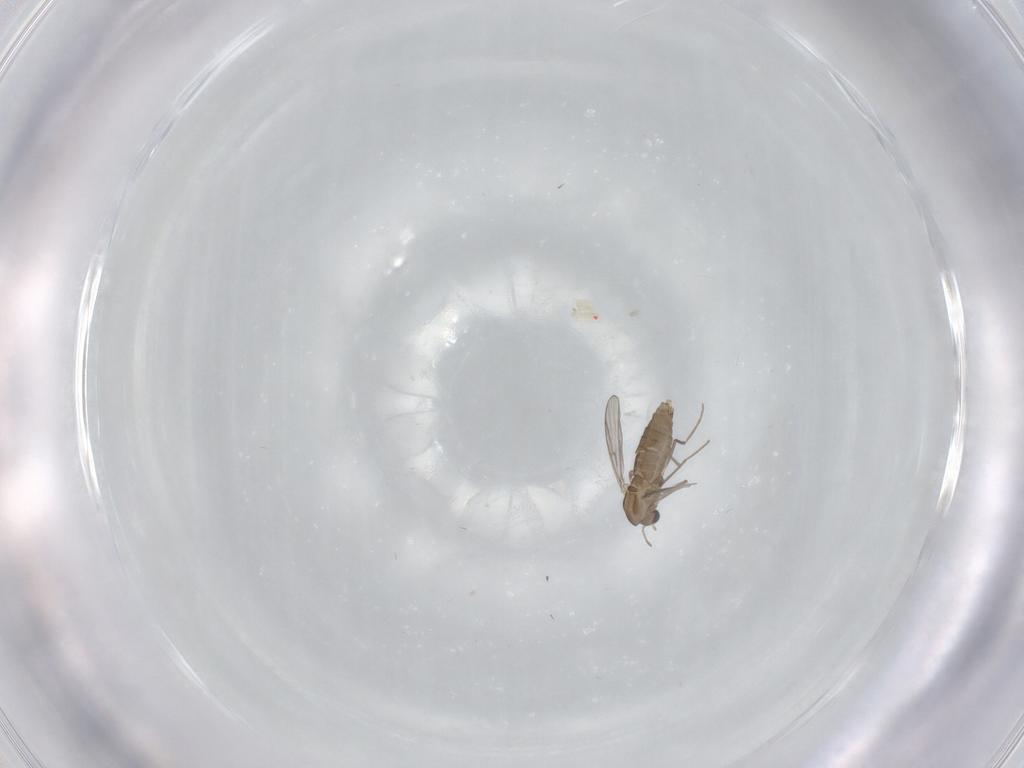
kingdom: Animalia
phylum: Arthropoda
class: Insecta
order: Diptera
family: Chironomidae
